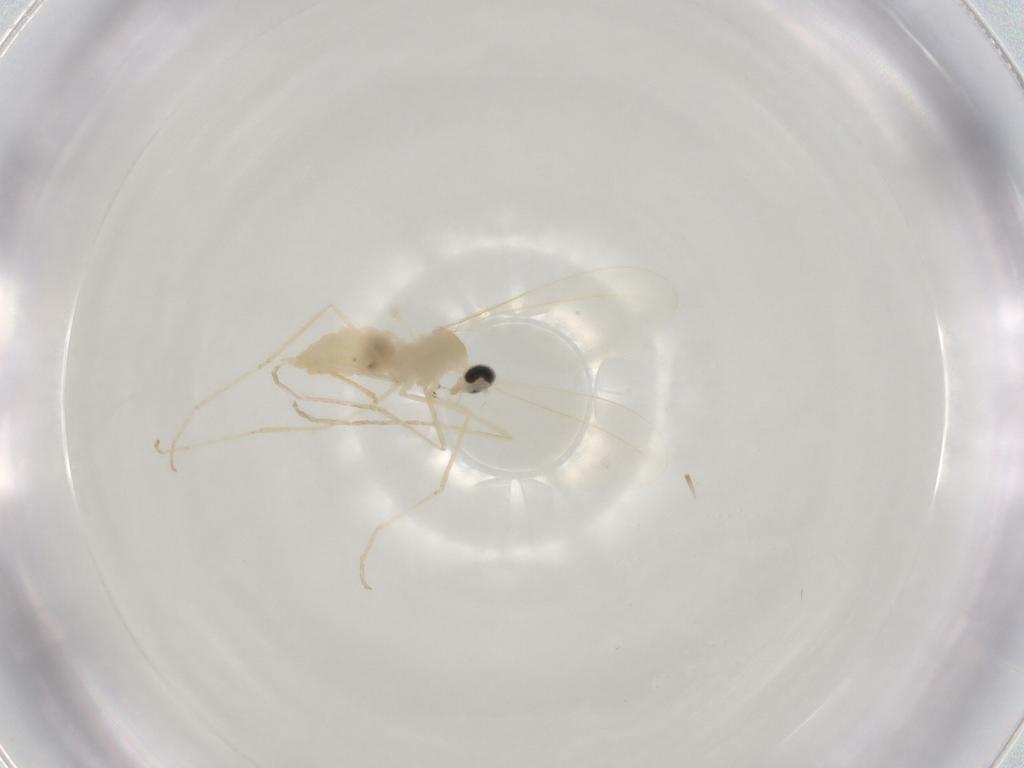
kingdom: Animalia
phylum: Arthropoda
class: Insecta
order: Diptera
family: Cecidomyiidae
